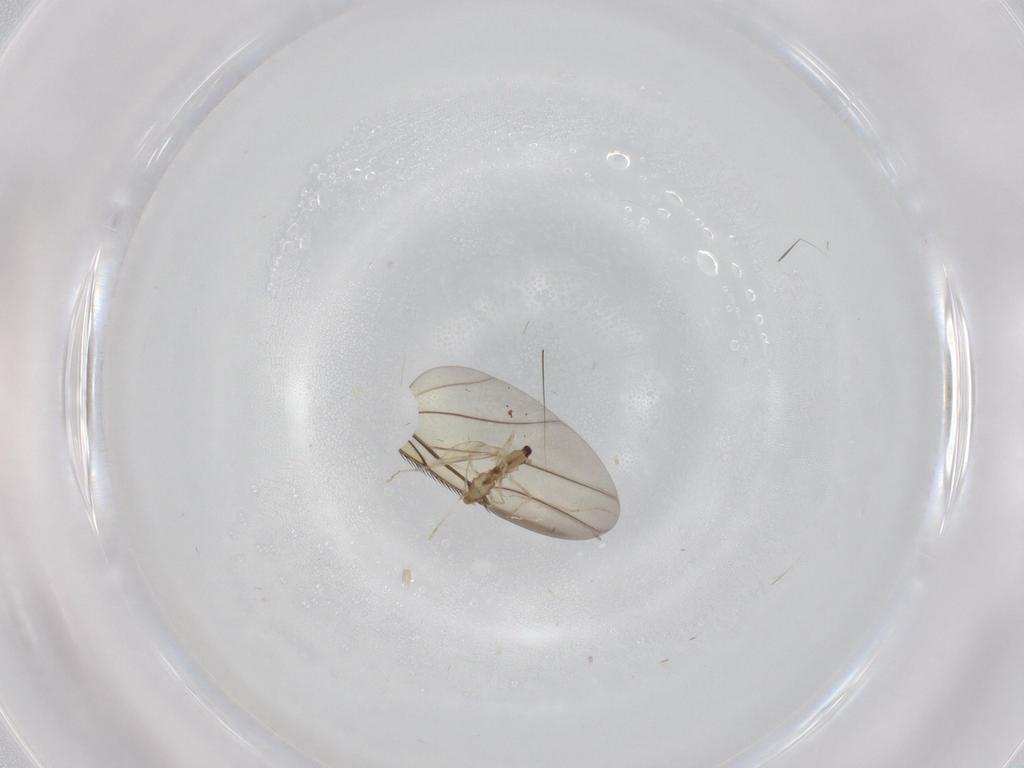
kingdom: Animalia
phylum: Arthropoda
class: Insecta
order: Diptera
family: Phoridae
